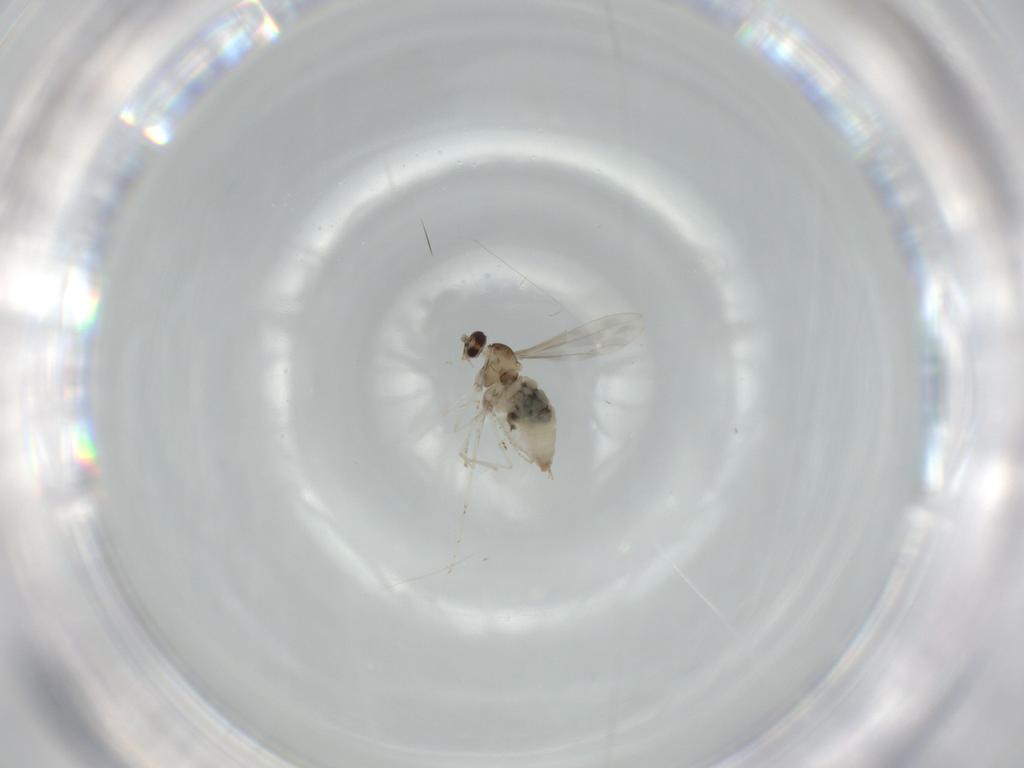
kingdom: Animalia
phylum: Arthropoda
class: Insecta
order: Diptera
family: Cecidomyiidae
